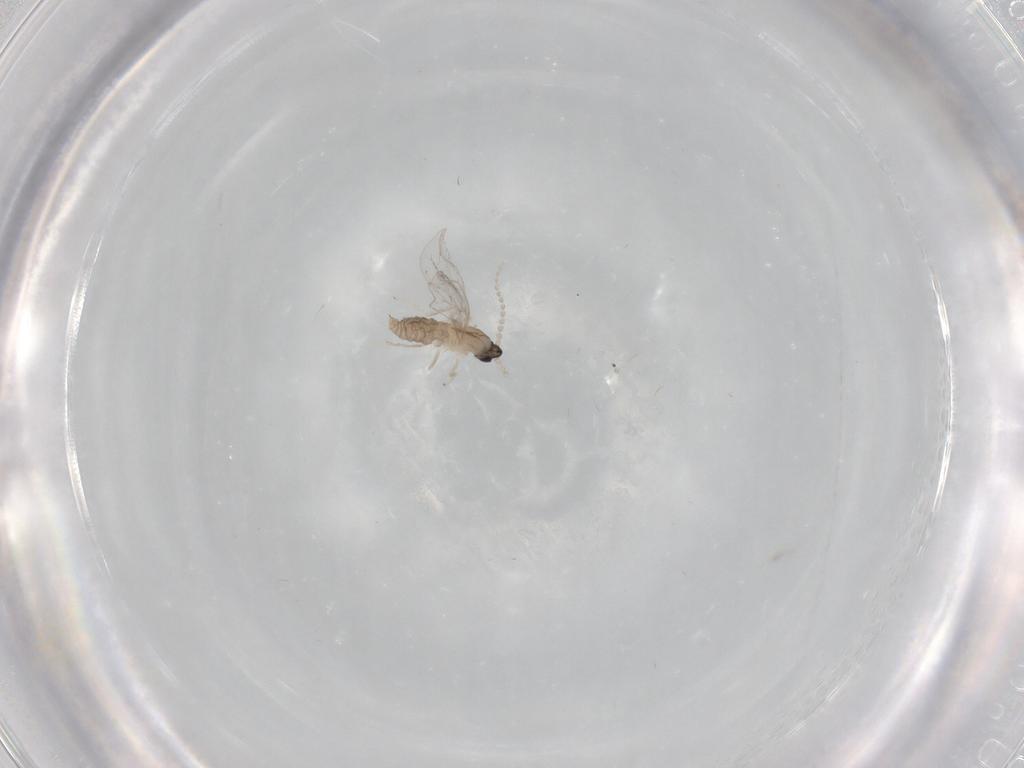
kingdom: Animalia
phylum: Arthropoda
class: Insecta
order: Diptera
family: Cecidomyiidae
